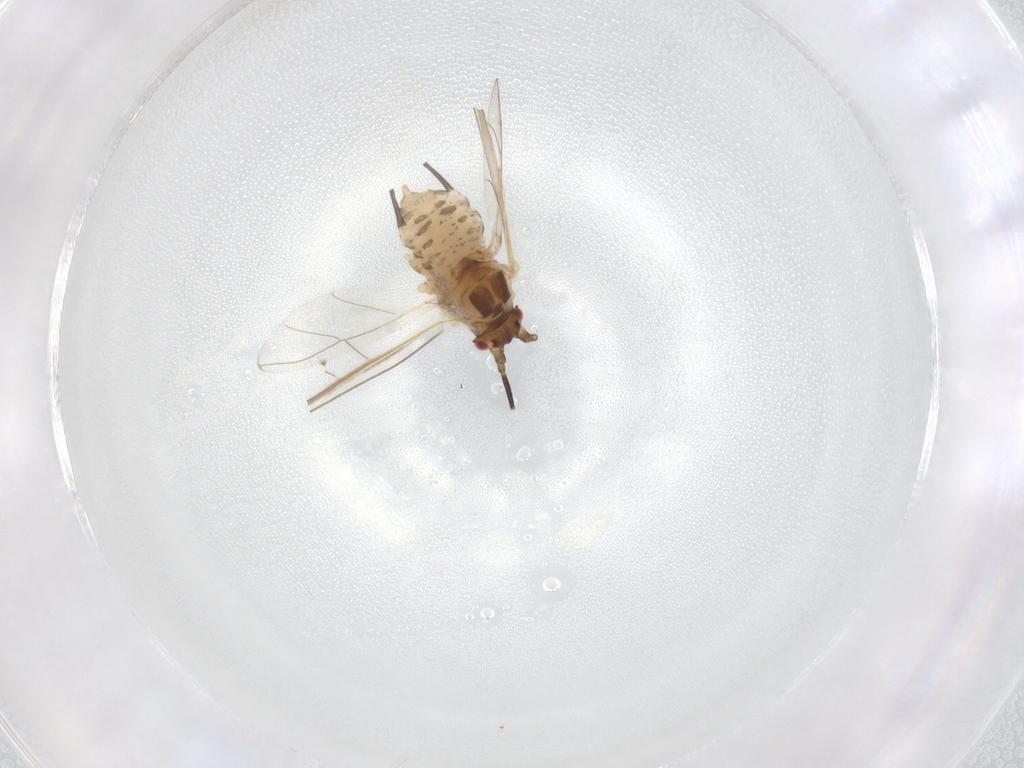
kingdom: Animalia
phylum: Arthropoda
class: Insecta
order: Hemiptera
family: Aphididae
